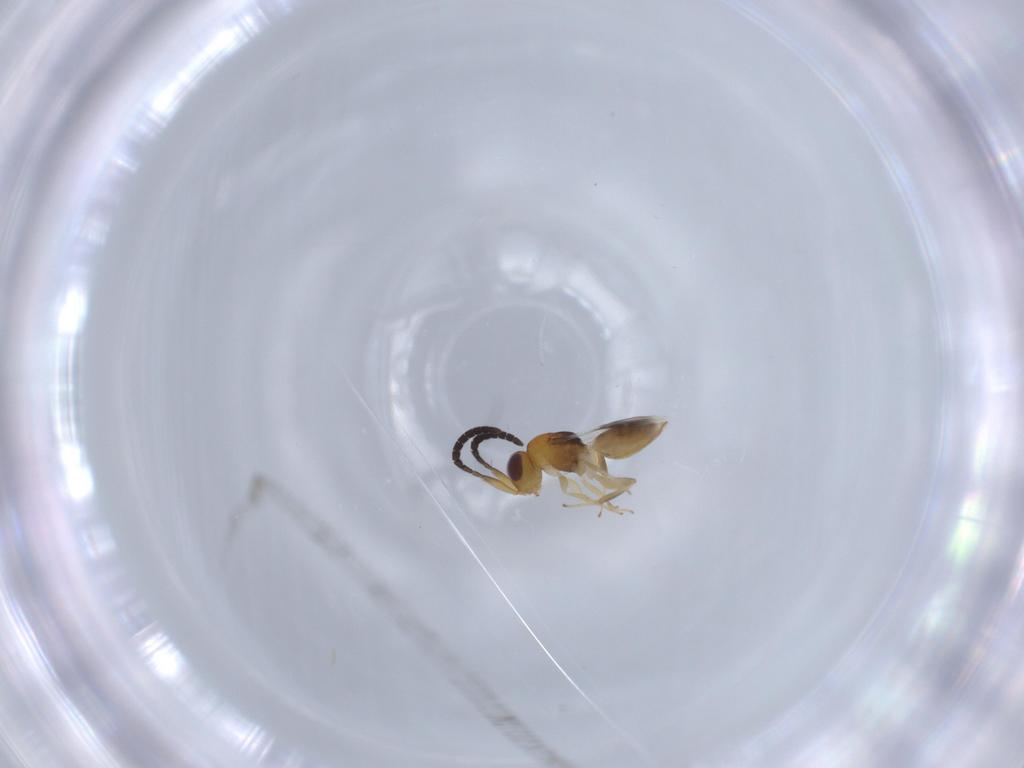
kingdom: Animalia
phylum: Arthropoda
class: Insecta
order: Hymenoptera
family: Megaspilidae
